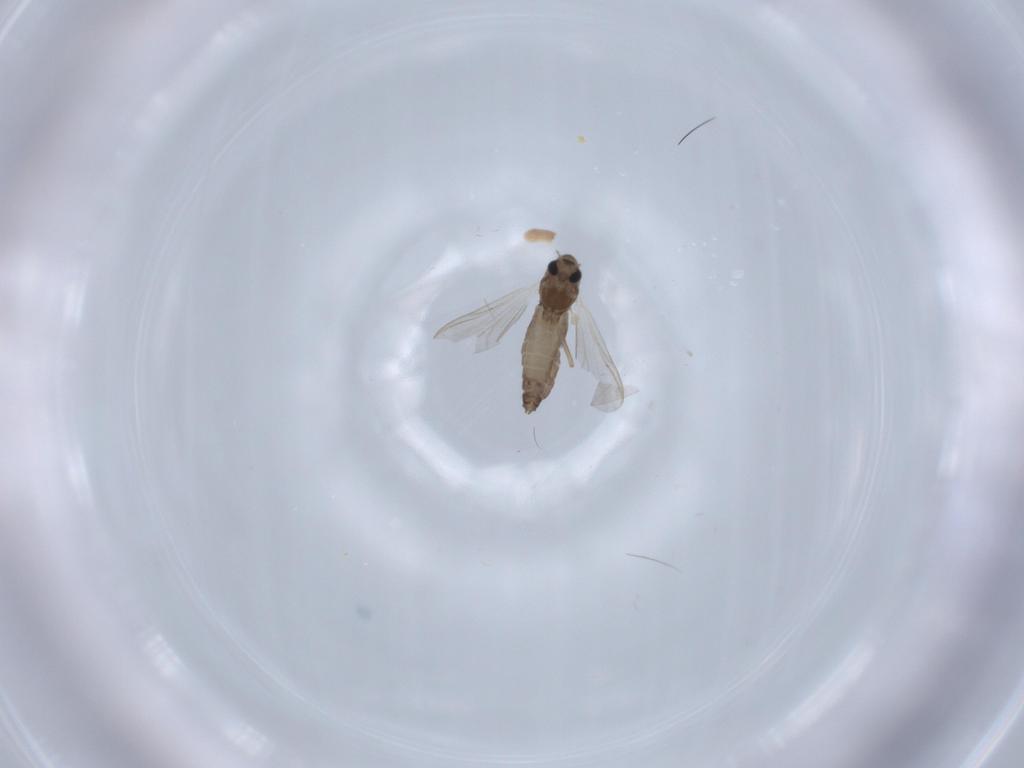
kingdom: Animalia
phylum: Arthropoda
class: Insecta
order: Diptera
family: Chironomidae
